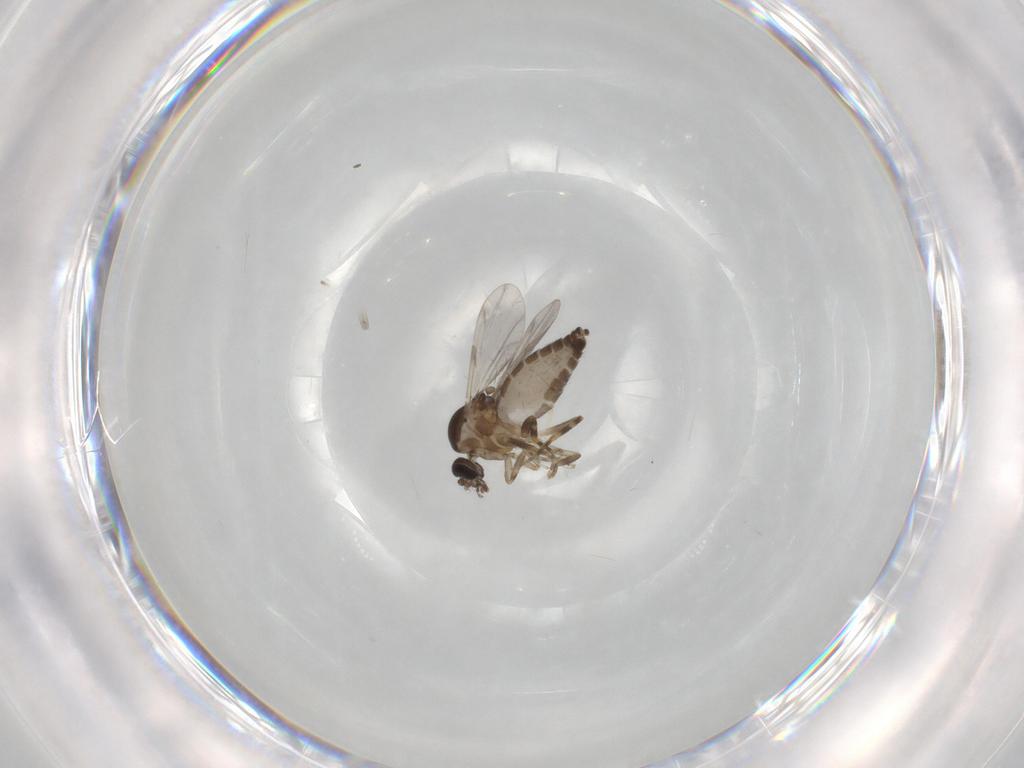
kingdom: Animalia
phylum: Arthropoda
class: Insecta
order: Diptera
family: Ceratopogonidae
